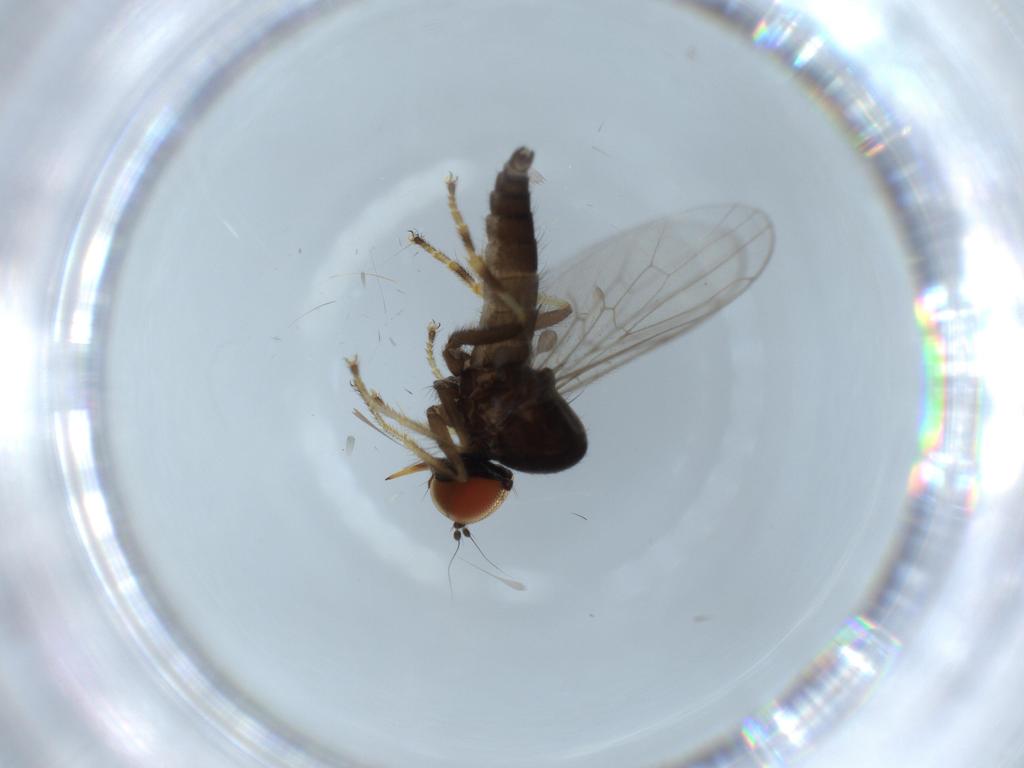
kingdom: Animalia
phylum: Arthropoda
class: Insecta
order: Diptera
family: Hybotidae
